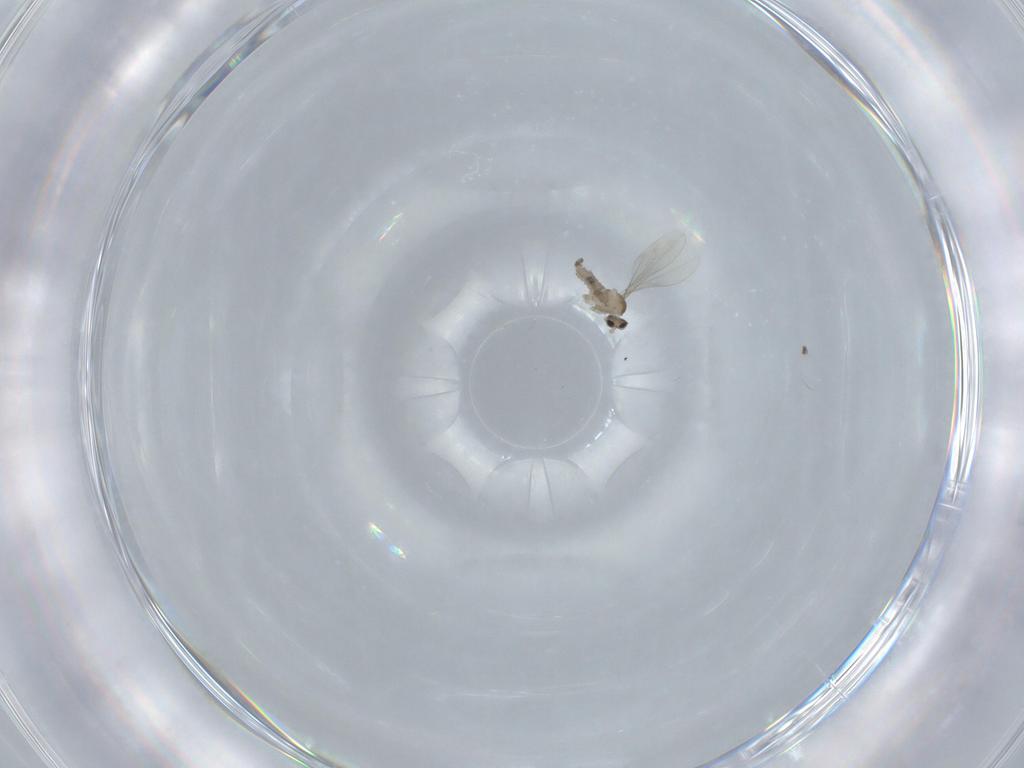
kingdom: Animalia
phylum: Arthropoda
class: Insecta
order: Diptera
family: Cecidomyiidae
